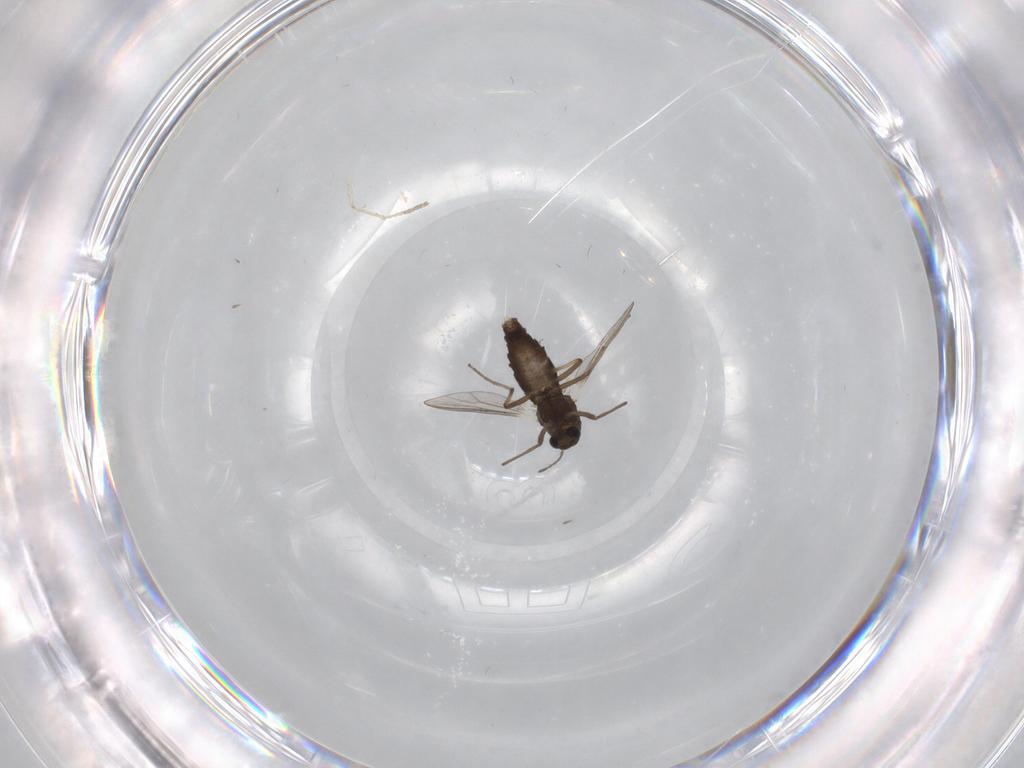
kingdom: Animalia
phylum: Arthropoda
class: Insecta
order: Diptera
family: Chironomidae
